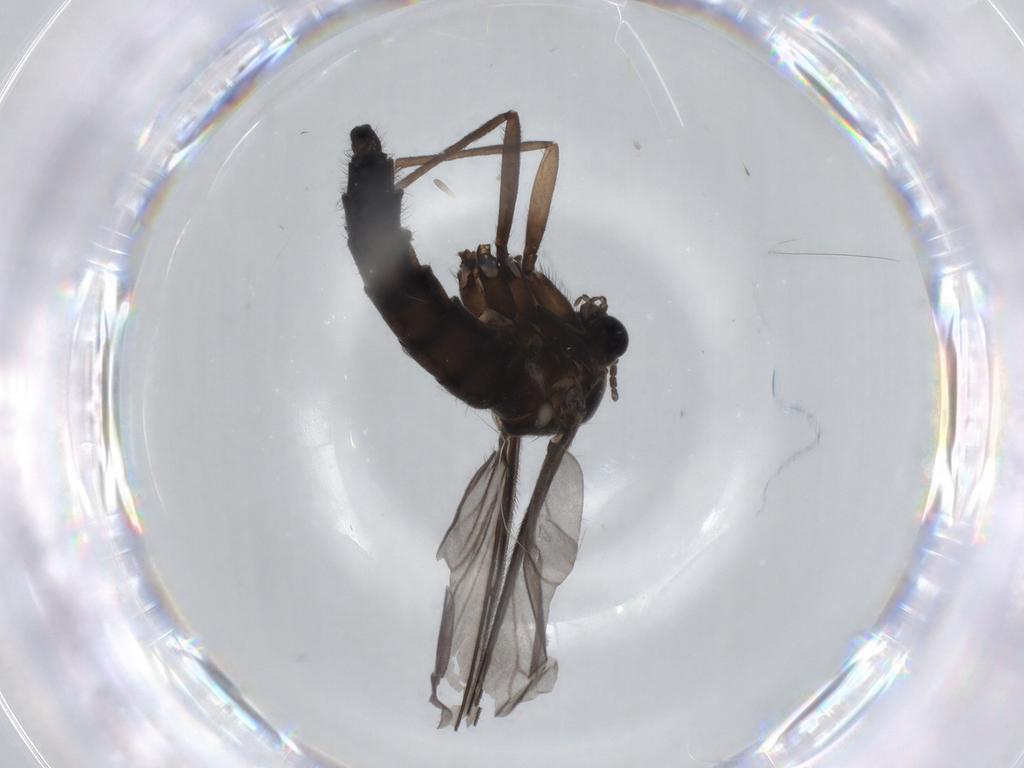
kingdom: Animalia
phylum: Arthropoda
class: Insecta
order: Diptera
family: Sciaridae
